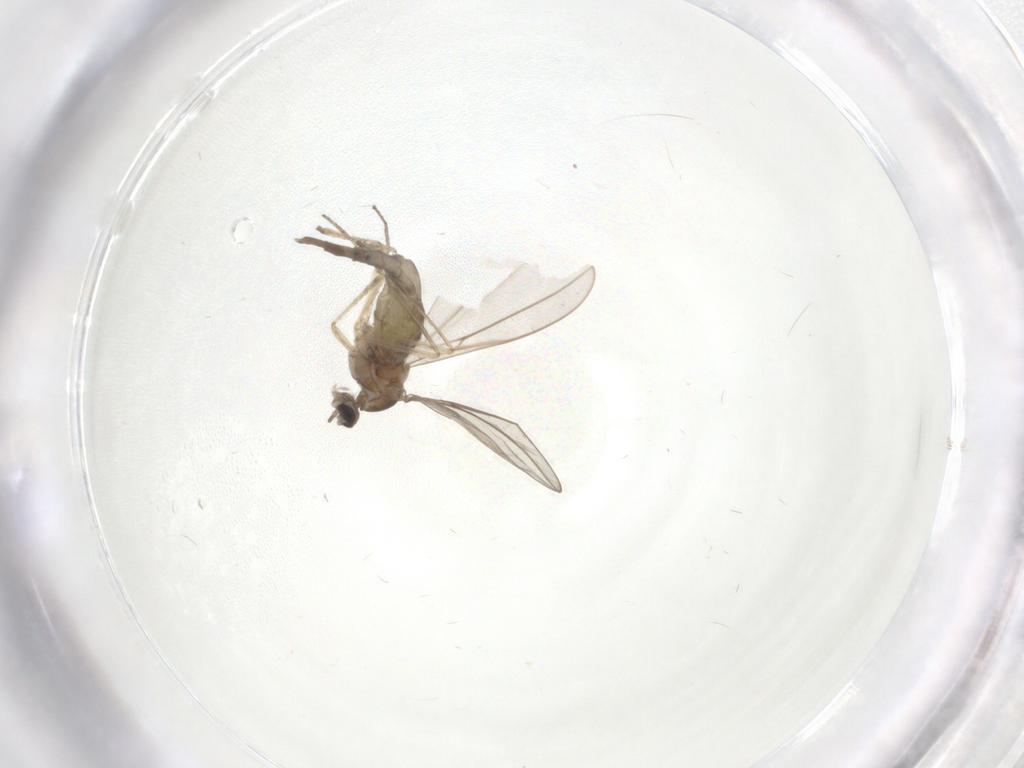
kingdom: Animalia
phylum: Arthropoda
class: Insecta
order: Diptera
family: Cecidomyiidae
